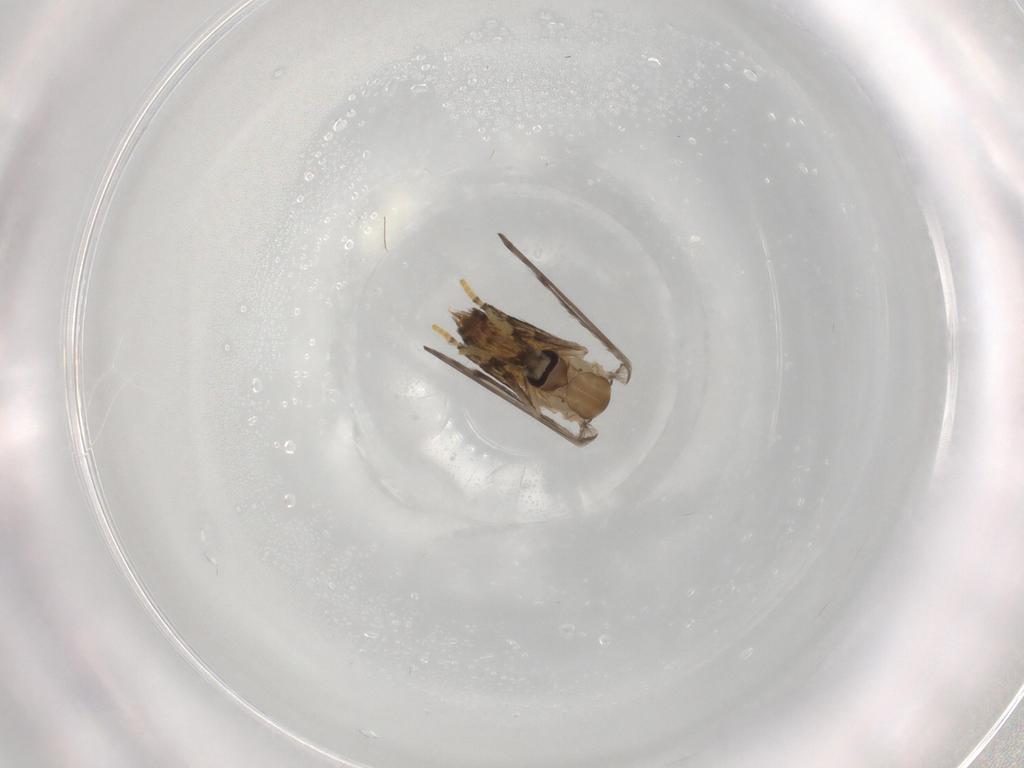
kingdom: Animalia
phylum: Arthropoda
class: Insecta
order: Diptera
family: Psychodidae
